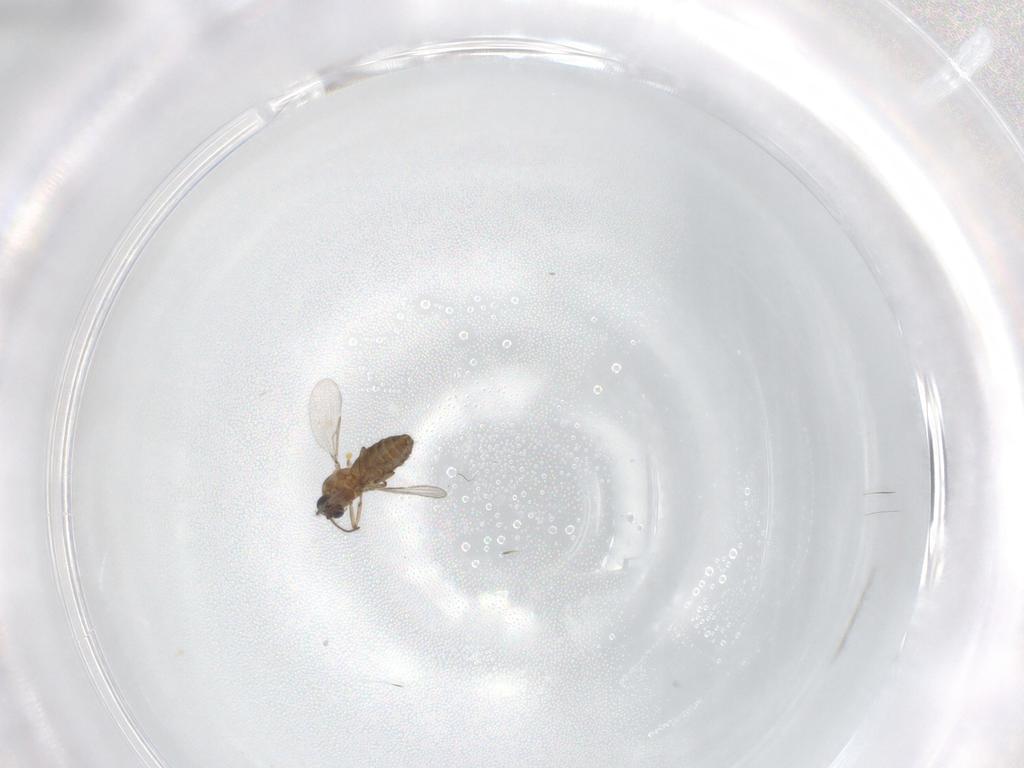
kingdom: Animalia
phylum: Arthropoda
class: Insecta
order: Diptera
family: Ceratopogonidae
